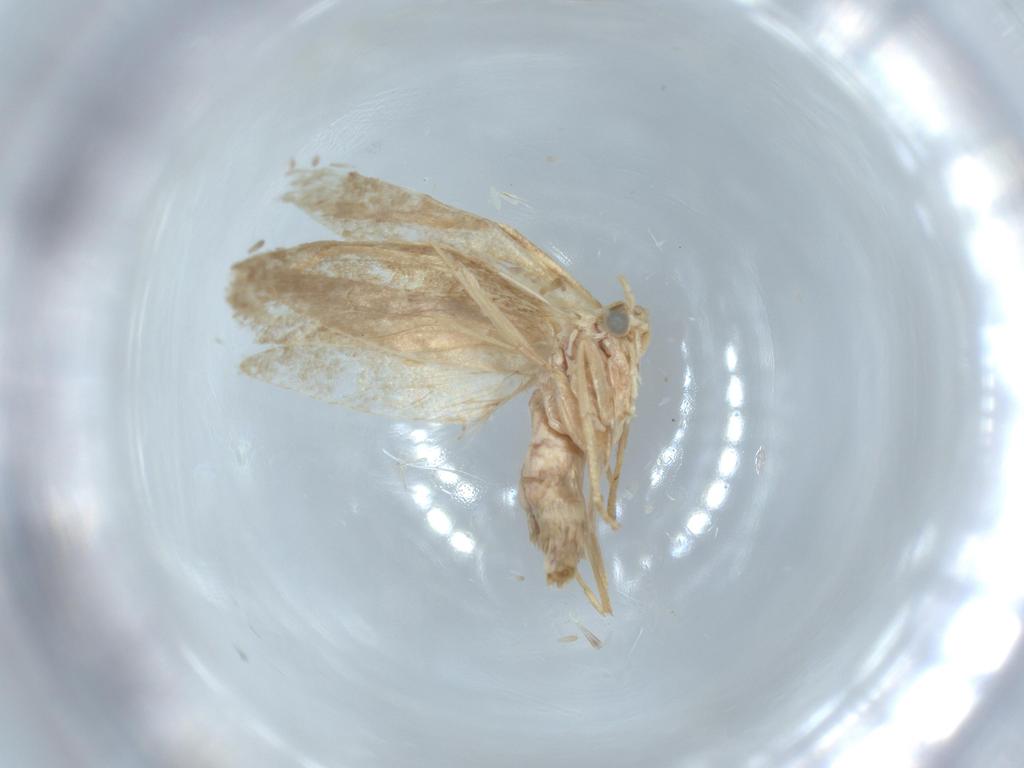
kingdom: Animalia
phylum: Arthropoda
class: Insecta
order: Lepidoptera
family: Dryadaulidae
